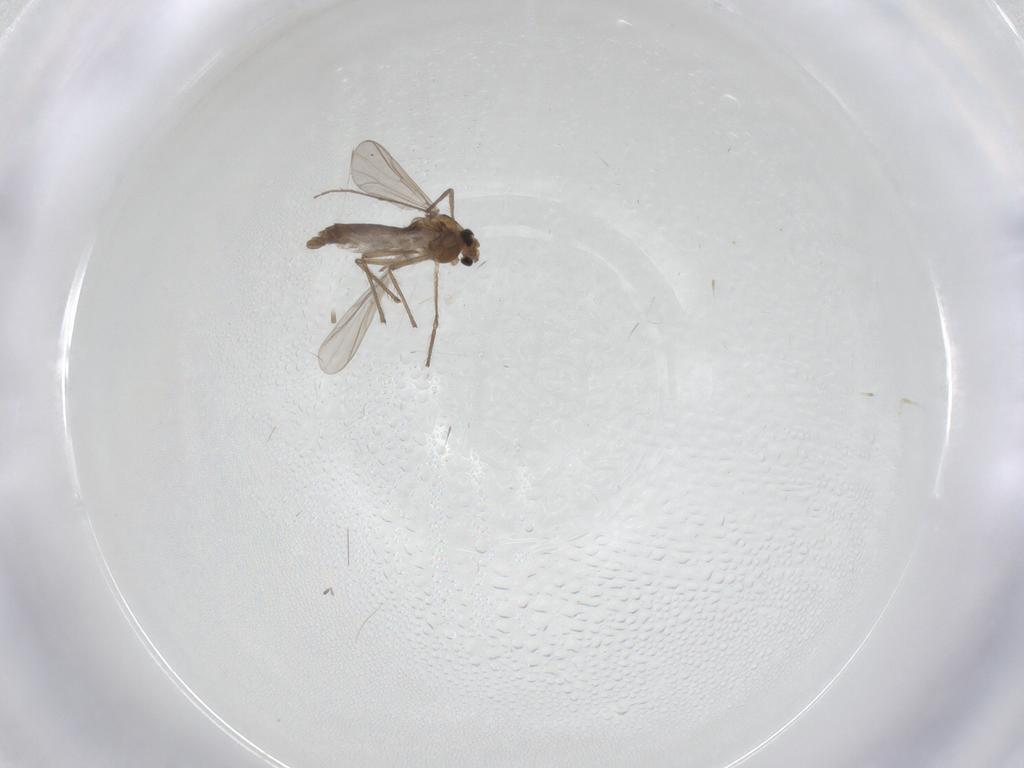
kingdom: Animalia
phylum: Arthropoda
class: Insecta
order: Diptera
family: Chironomidae
